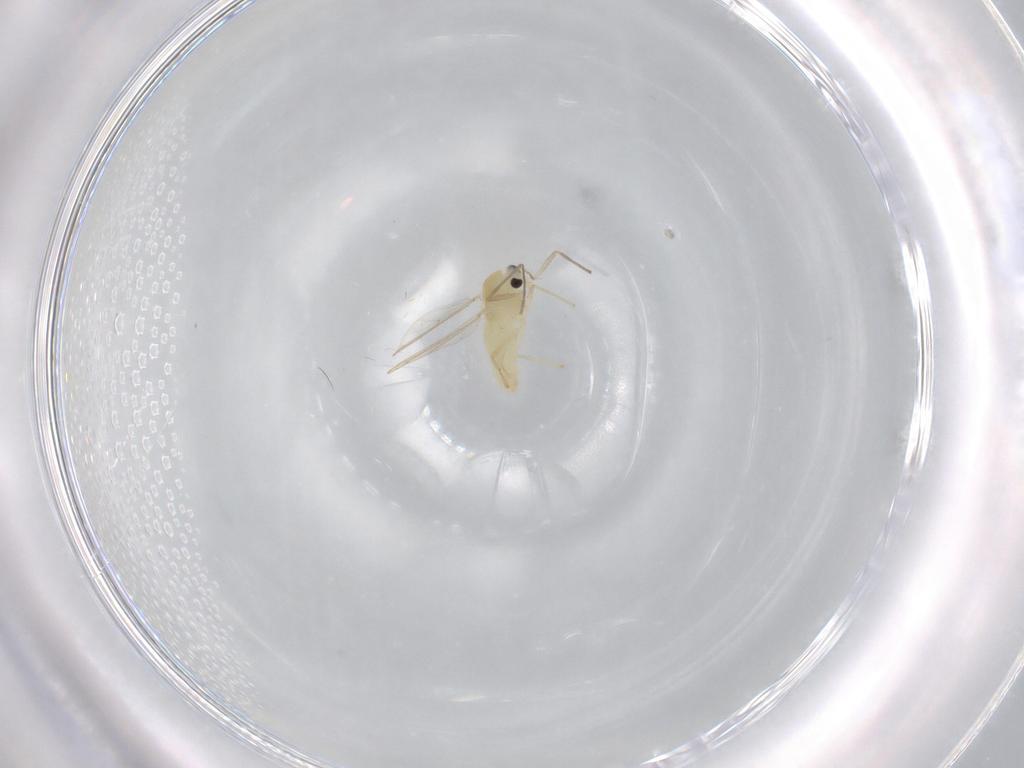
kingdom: Animalia
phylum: Arthropoda
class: Insecta
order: Diptera
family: Chironomidae
